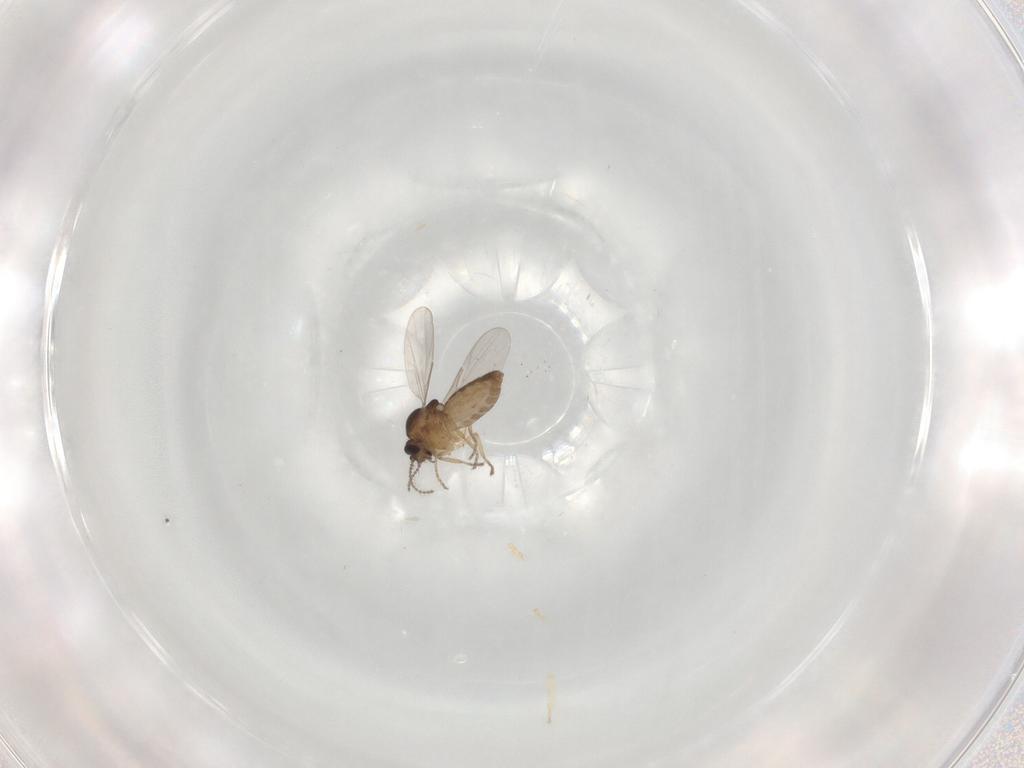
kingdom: Animalia
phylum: Arthropoda
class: Insecta
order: Diptera
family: Ceratopogonidae
